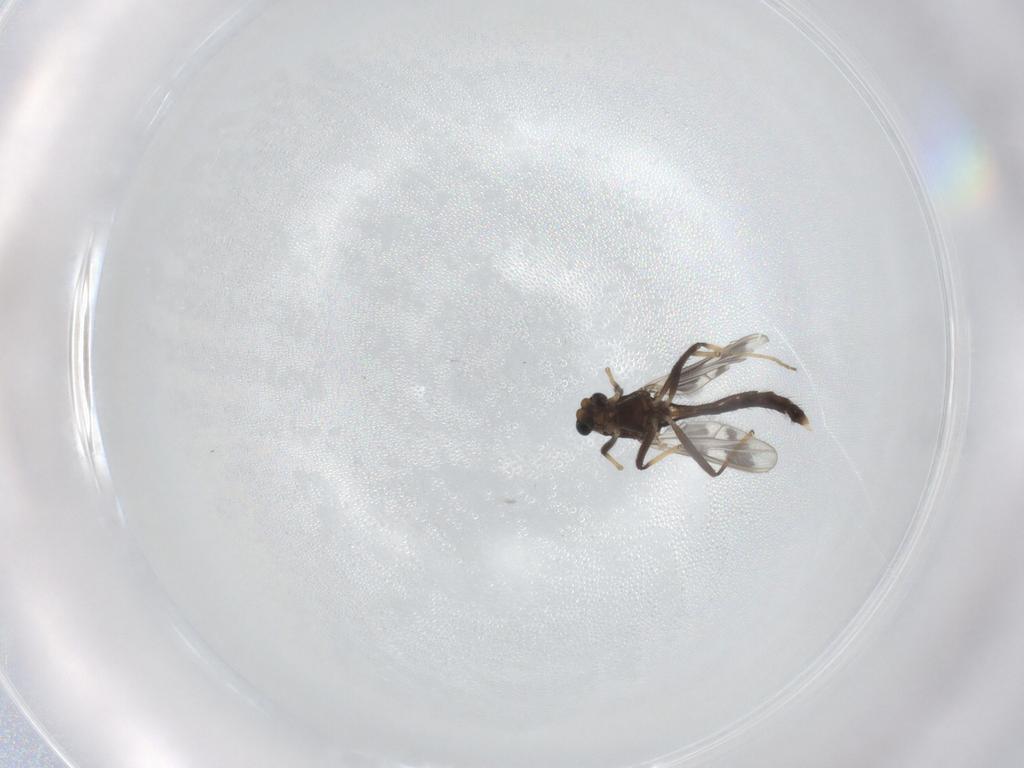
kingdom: Animalia
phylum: Arthropoda
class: Insecta
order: Diptera
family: Chironomidae
